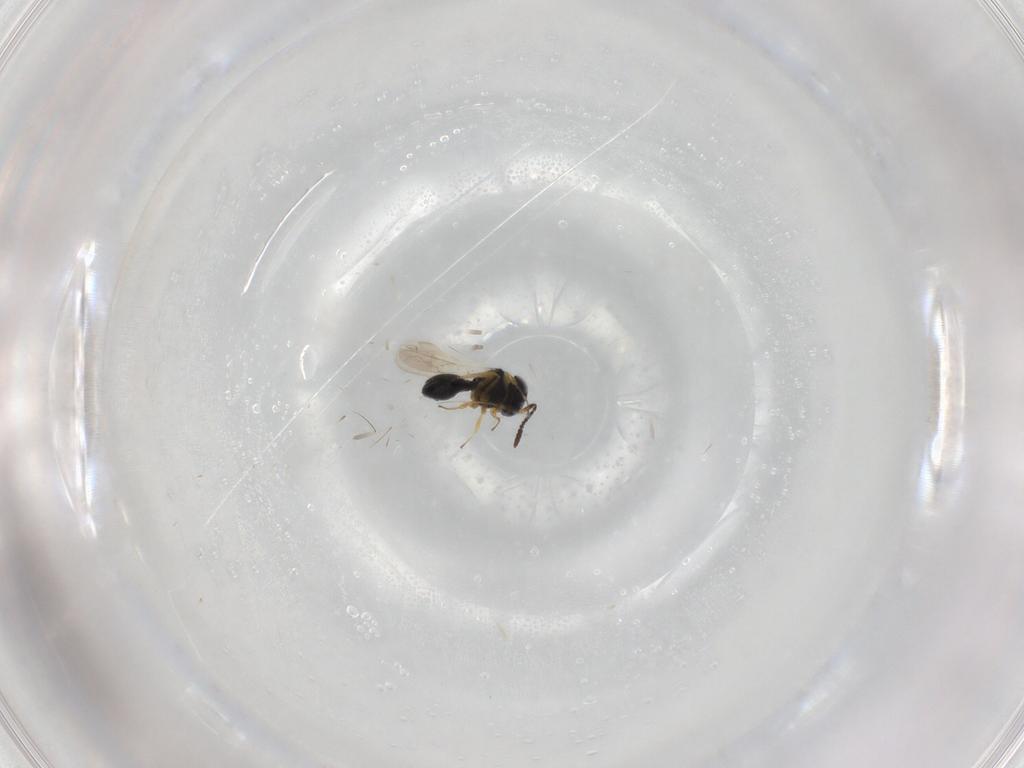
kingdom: Animalia
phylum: Arthropoda
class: Insecta
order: Hymenoptera
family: Scelionidae
